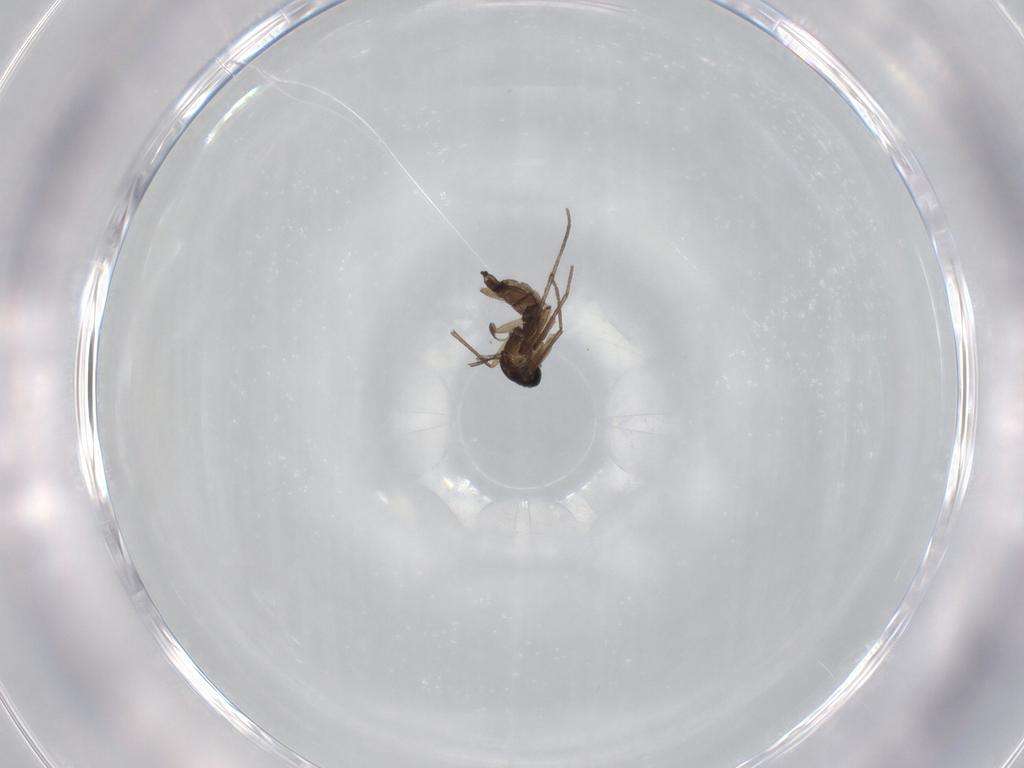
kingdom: Animalia
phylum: Arthropoda
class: Insecta
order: Diptera
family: Sciaridae
